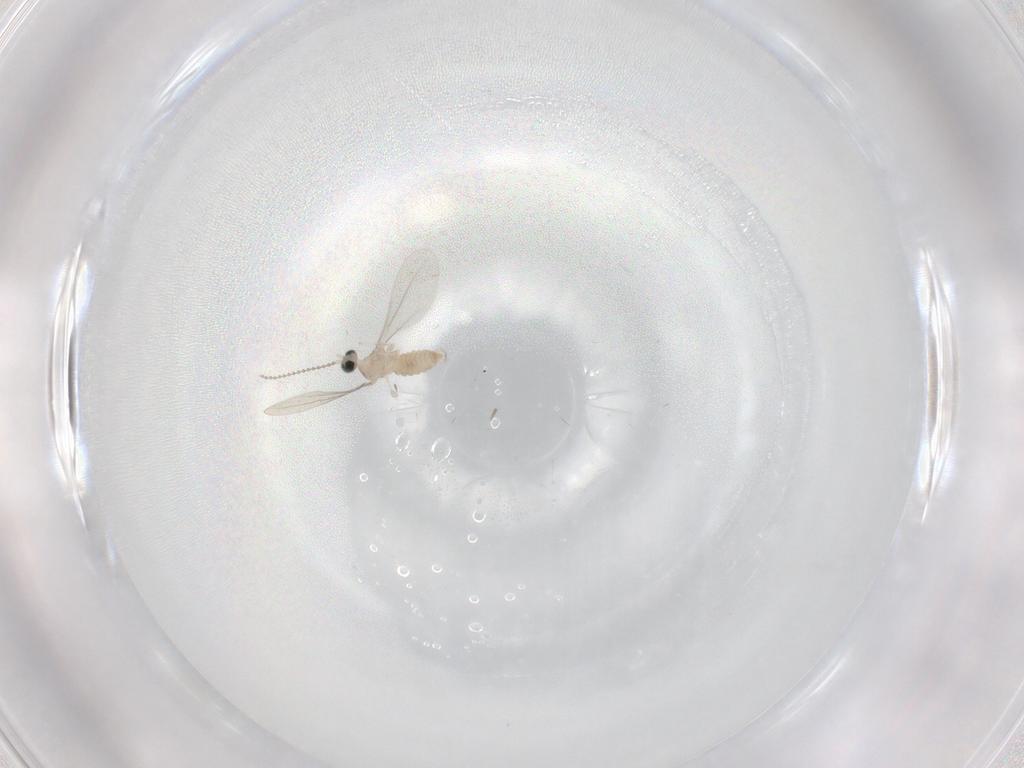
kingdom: Animalia
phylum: Arthropoda
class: Insecta
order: Diptera
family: Cecidomyiidae
